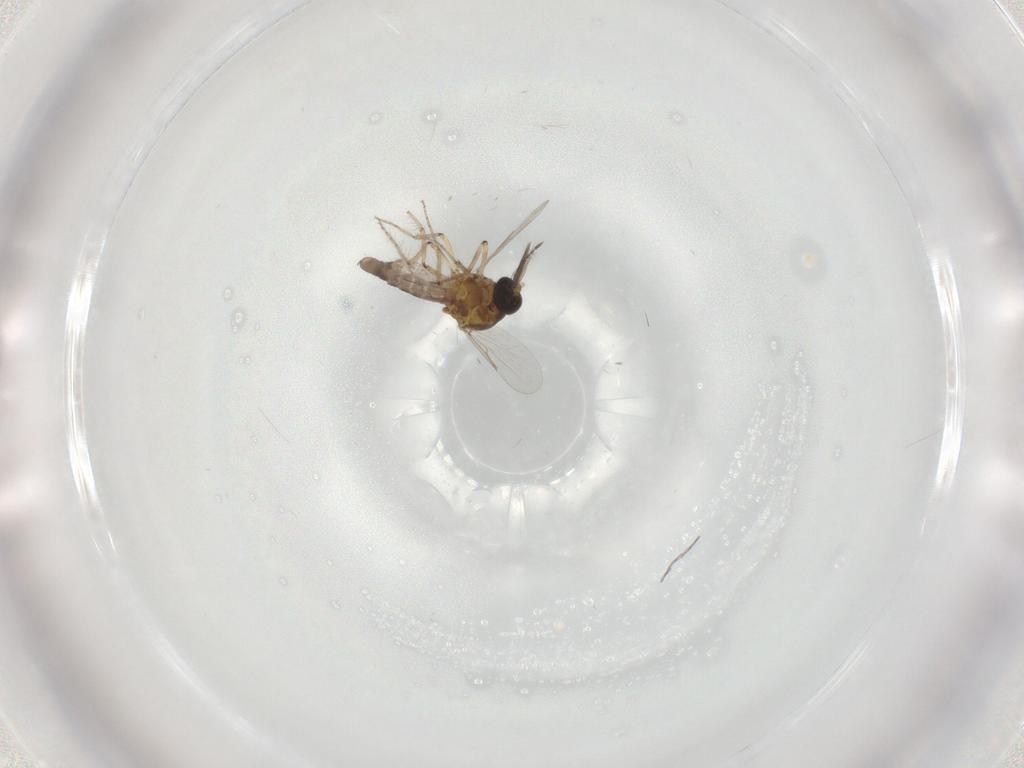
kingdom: Animalia
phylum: Arthropoda
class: Insecta
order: Diptera
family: Ceratopogonidae
